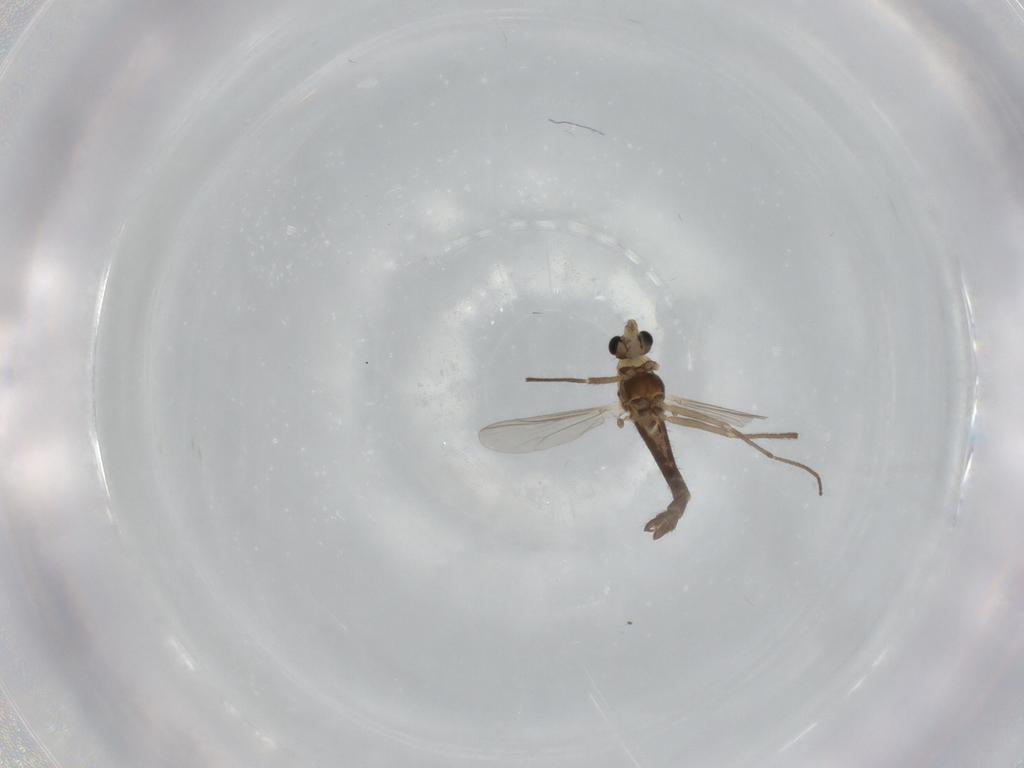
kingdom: Animalia
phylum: Arthropoda
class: Insecta
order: Diptera
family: Chironomidae
